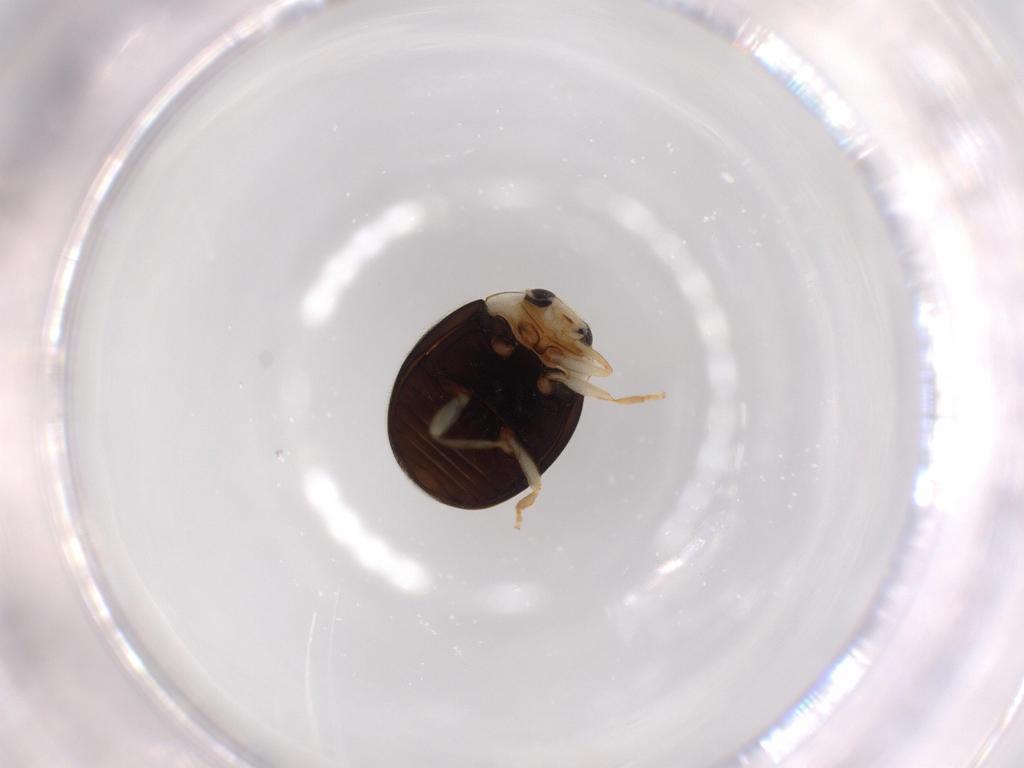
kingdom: Animalia
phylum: Arthropoda
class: Insecta
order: Coleoptera
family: Coccinellidae
